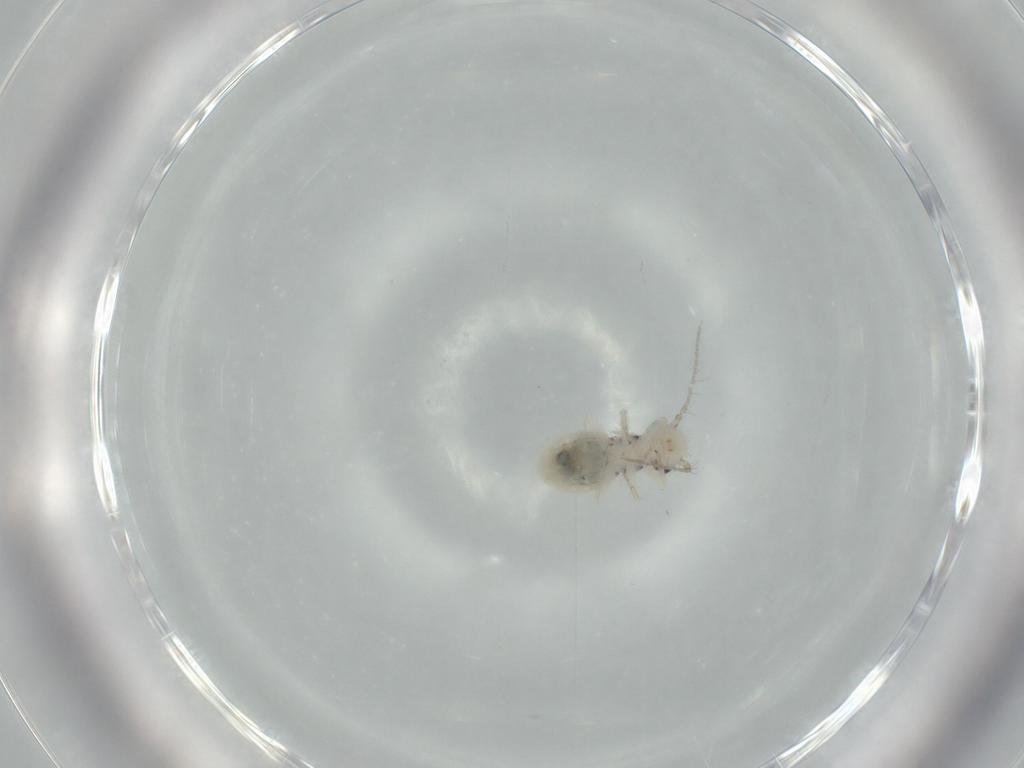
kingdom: Animalia
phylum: Arthropoda
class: Insecta
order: Psocodea
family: Pseudocaeciliidae
